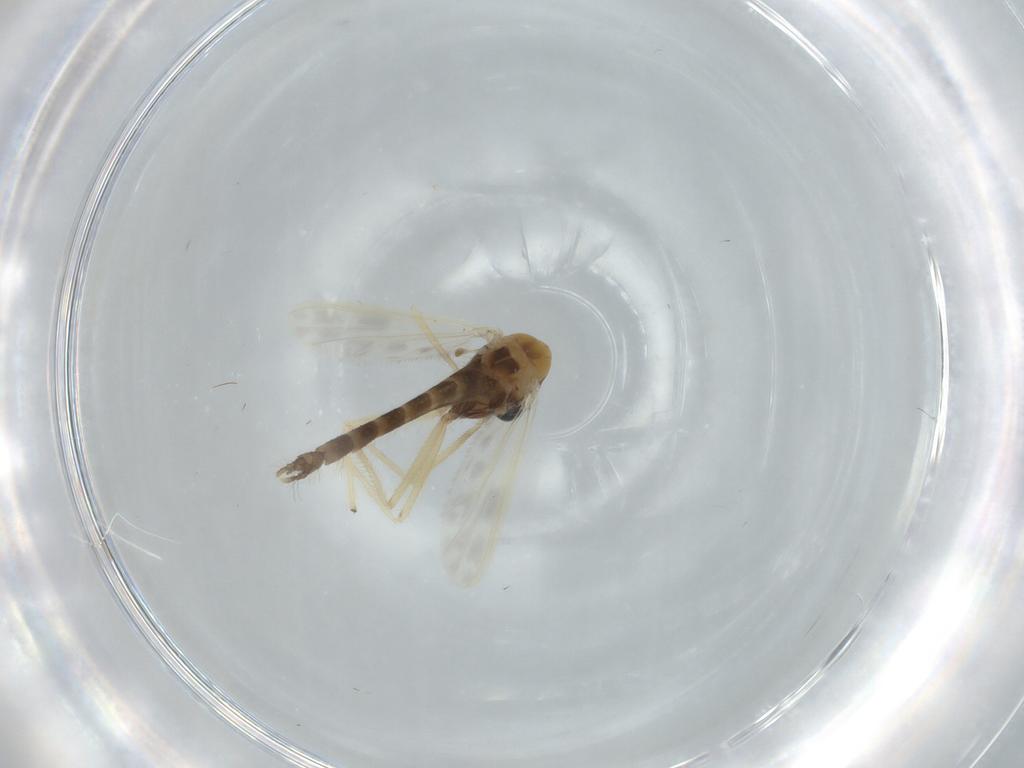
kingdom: Animalia
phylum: Arthropoda
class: Insecta
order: Diptera
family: Chironomidae
